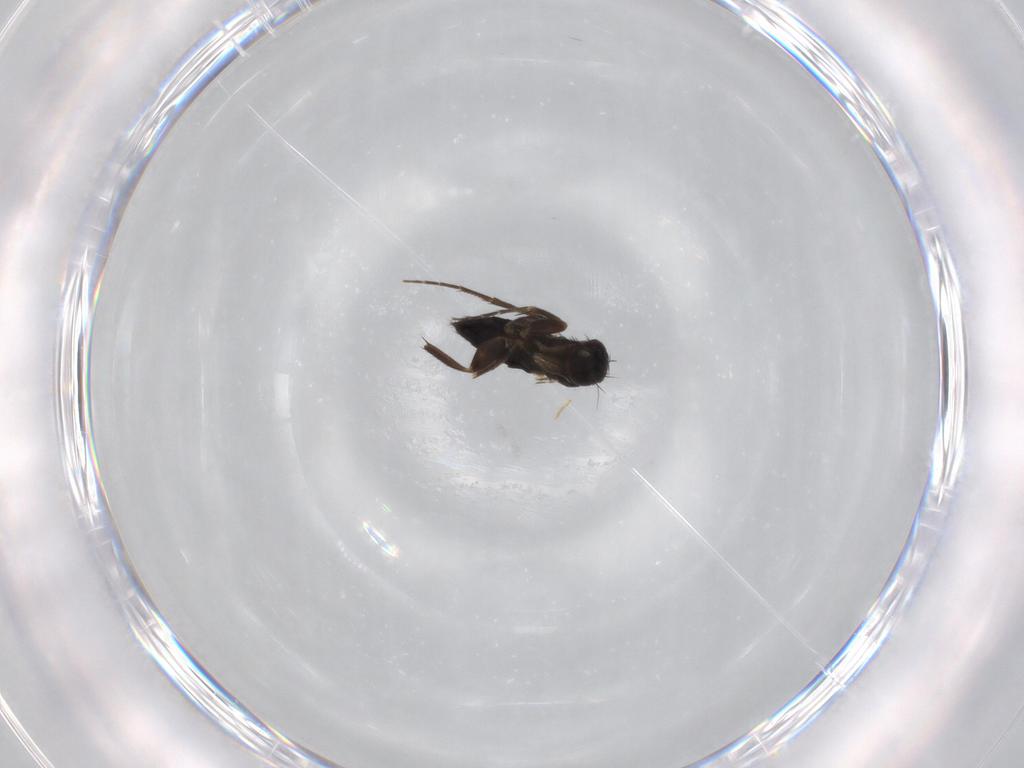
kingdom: Animalia
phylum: Arthropoda
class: Insecta
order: Diptera
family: Phoridae
